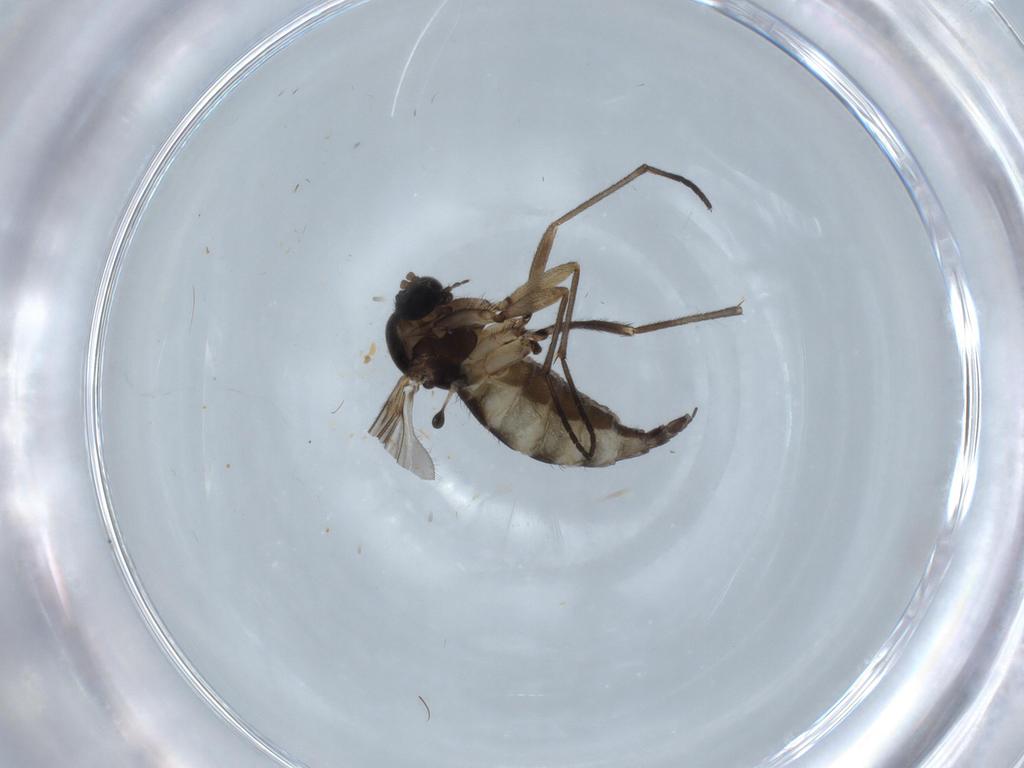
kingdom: Animalia
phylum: Arthropoda
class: Insecta
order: Diptera
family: Sciaridae
